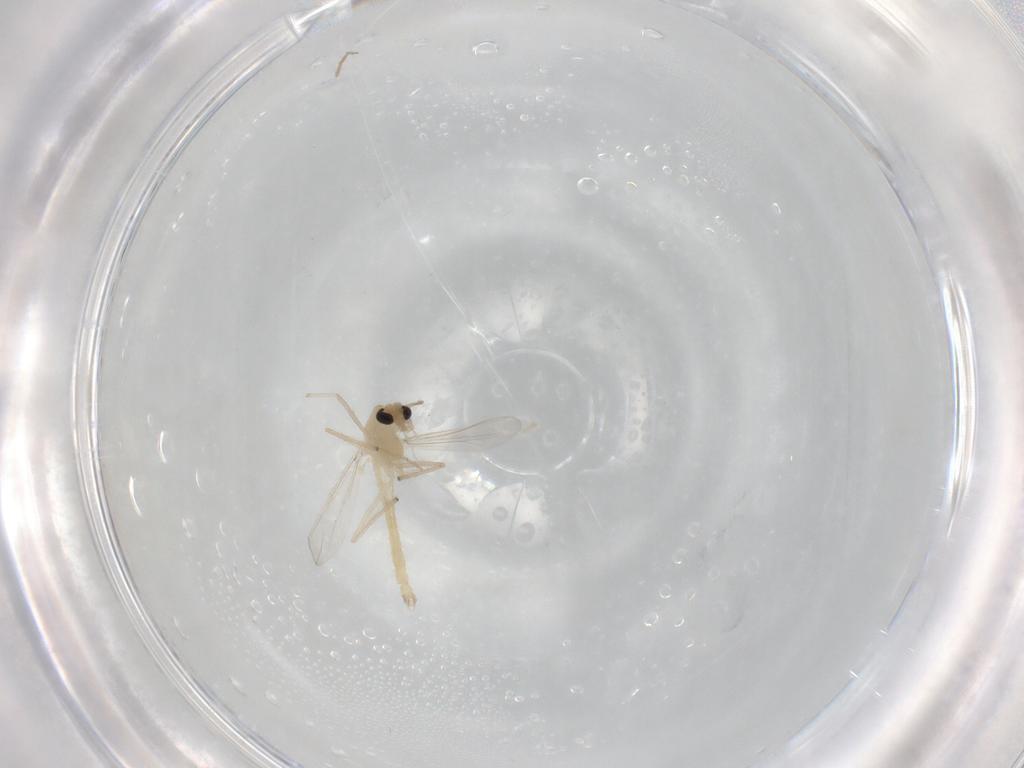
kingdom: Animalia
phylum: Arthropoda
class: Insecta
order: Diptera
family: Chironomidae
